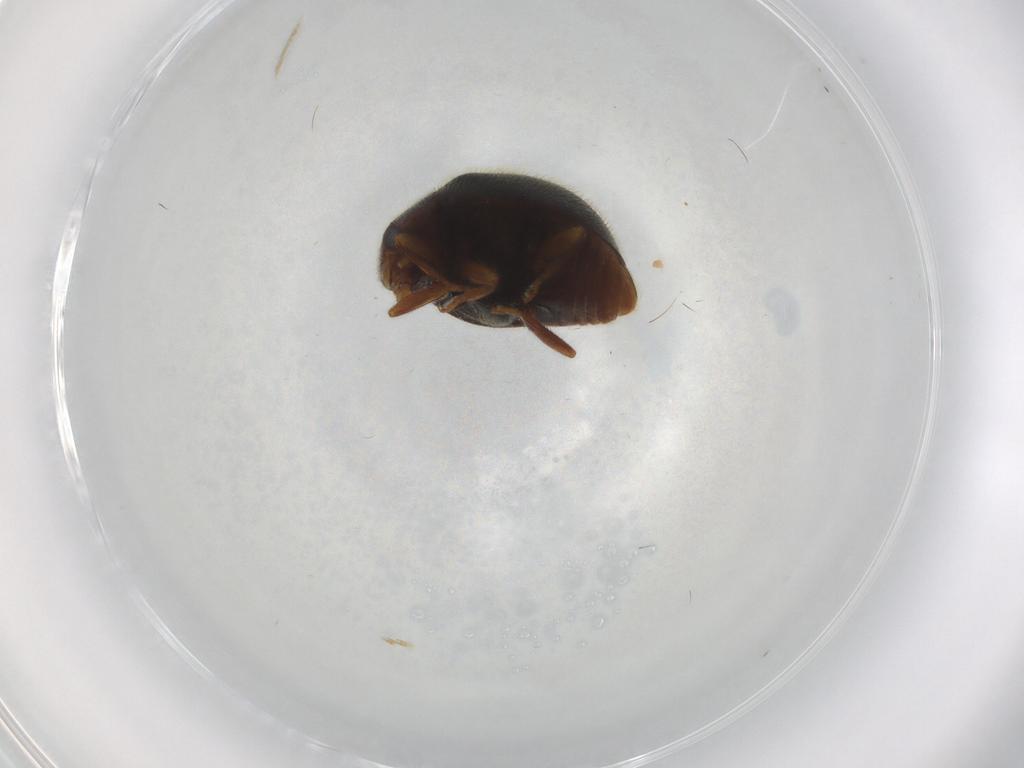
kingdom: Animalia
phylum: Arthropoda
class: Insecta
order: Coleoptera
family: Coccinellidae
